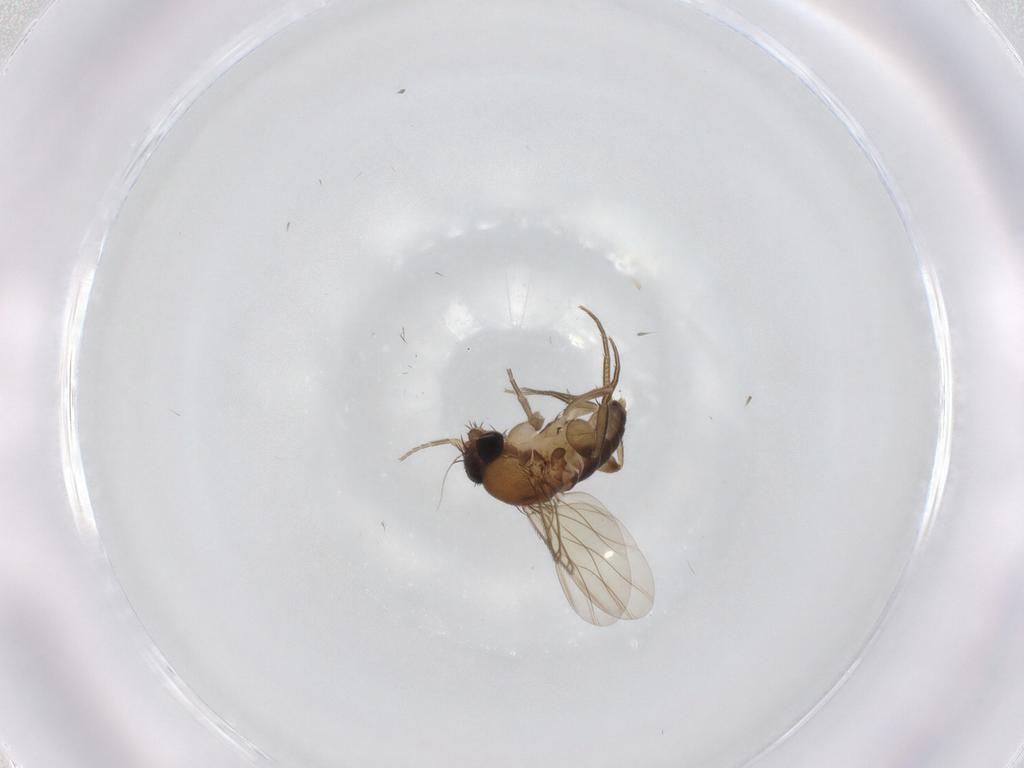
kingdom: Animalia
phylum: Arthropoda
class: Insecta
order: Diptera
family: Phoridae
